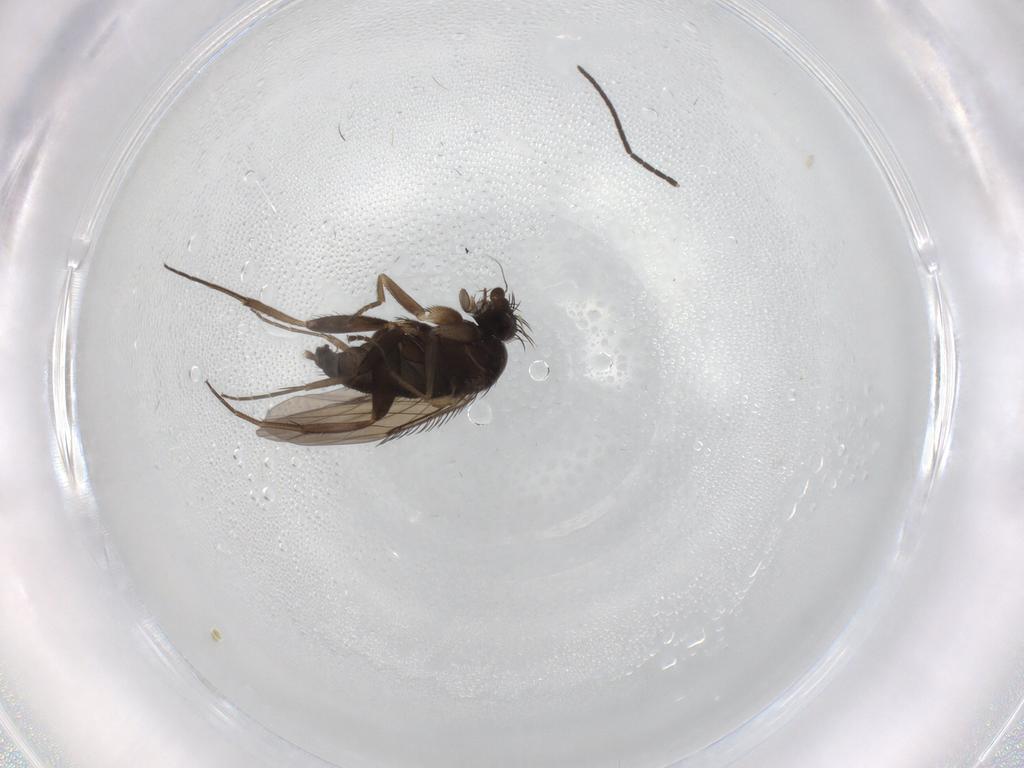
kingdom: Animalia
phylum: Arthropoda
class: Insecta
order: Diptera
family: Phoridae
